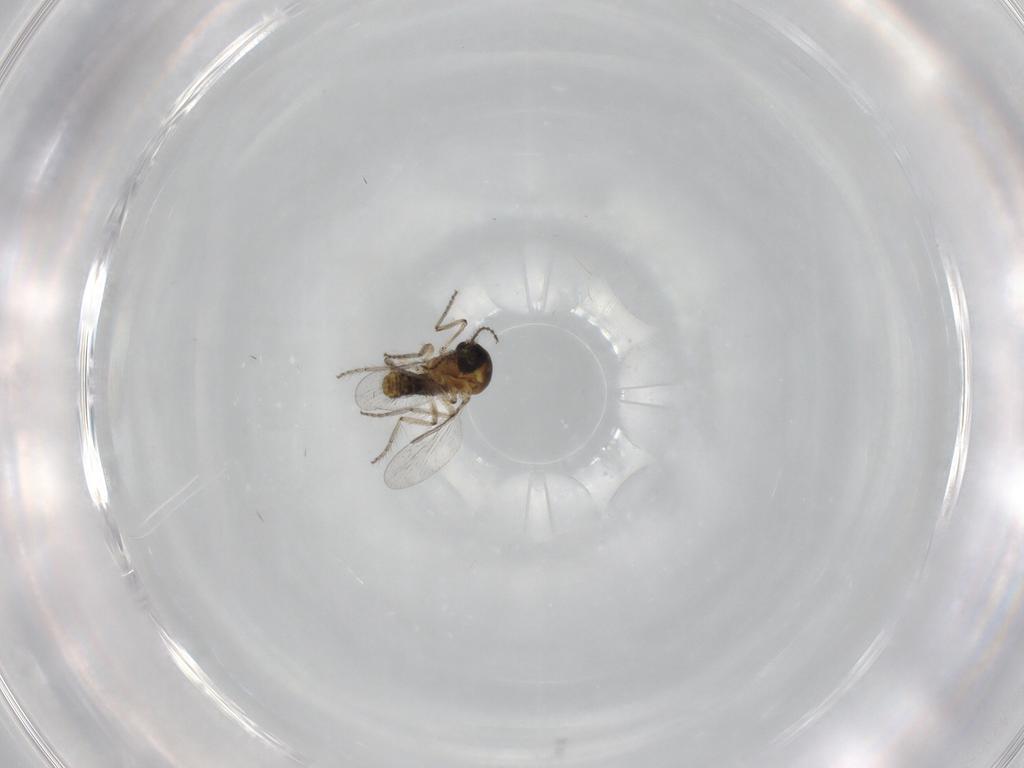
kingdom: Animalia
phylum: Arthropoda
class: Insecta
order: Diptera
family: Ceratopogonidae
